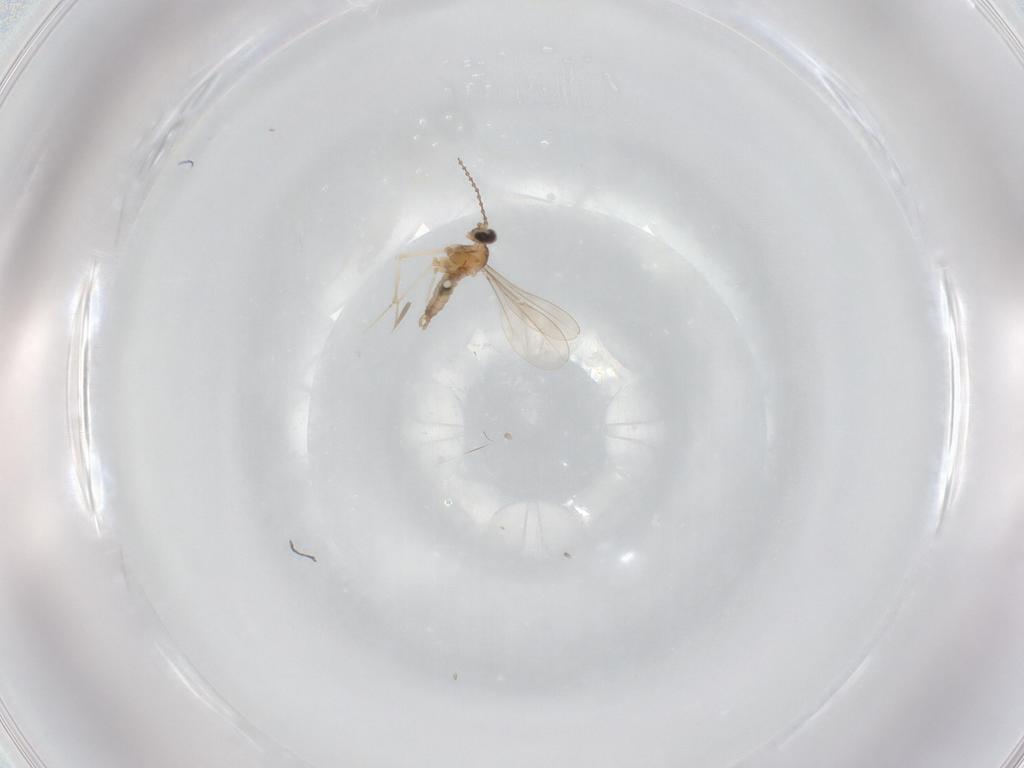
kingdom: Animalia
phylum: Arthropoda
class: Insecta
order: Diptera
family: Cecidomyiidae
